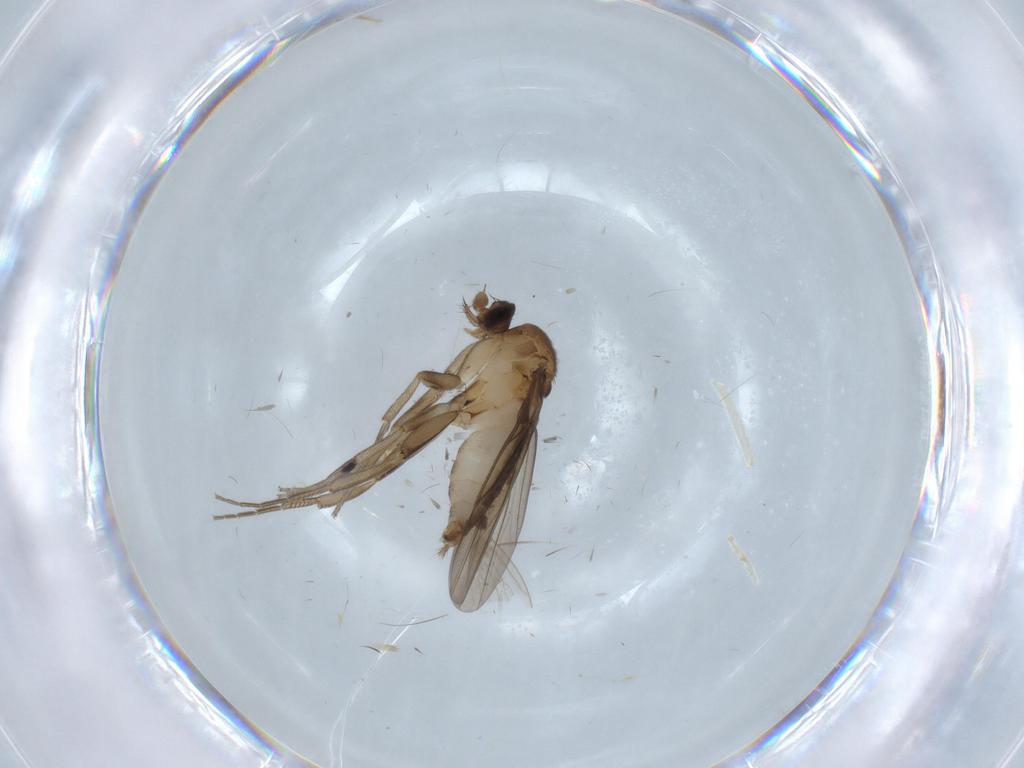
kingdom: Animalia
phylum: Arthropoda
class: Insecta
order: Diptera
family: Phoridae
